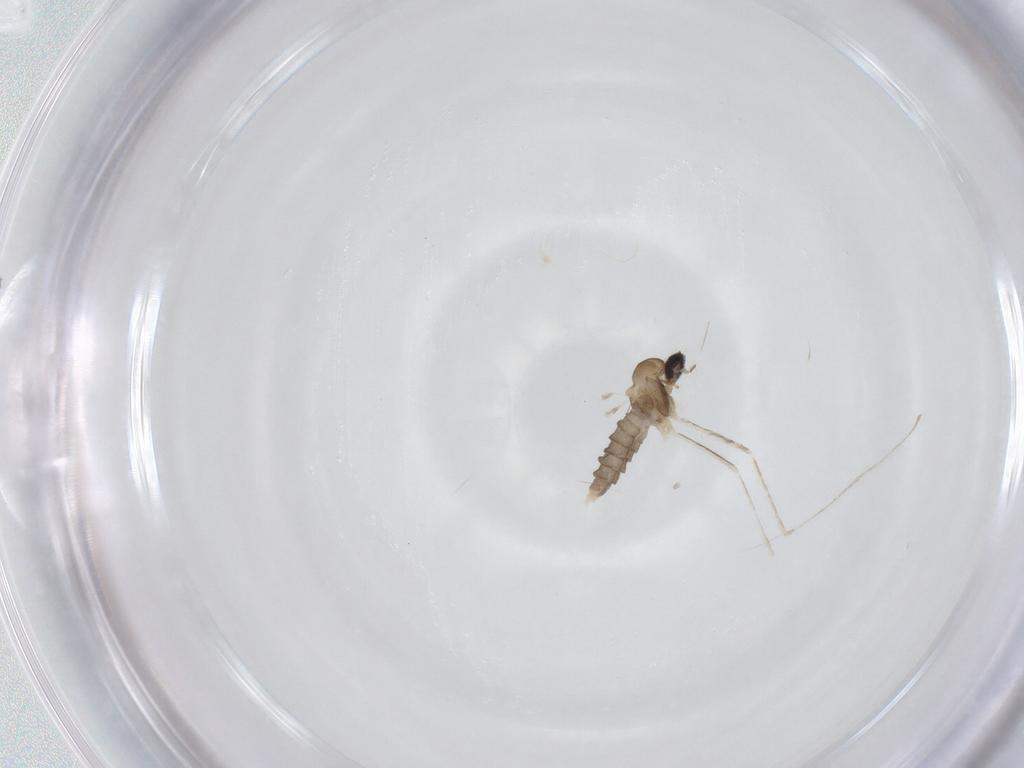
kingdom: Animalia
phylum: Arthropoda
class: Insecta
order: Diptera
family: Cecidomyiidae
